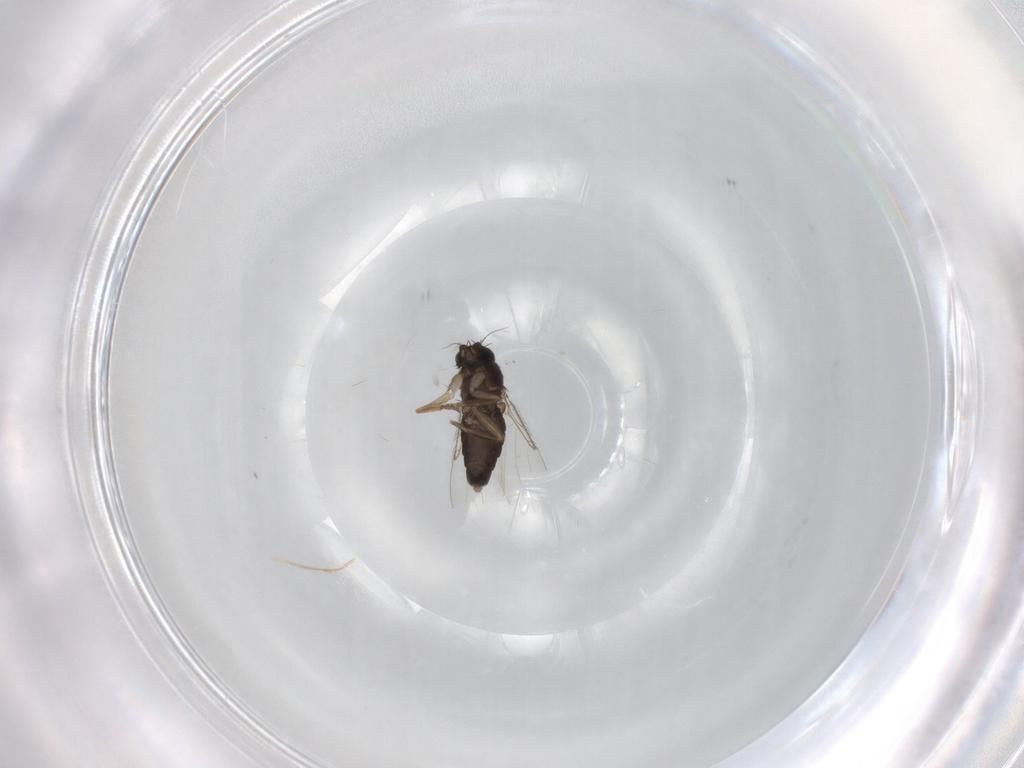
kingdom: Animalia
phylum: Arthropoda
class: Insecta
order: Diptera
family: Phoridae
